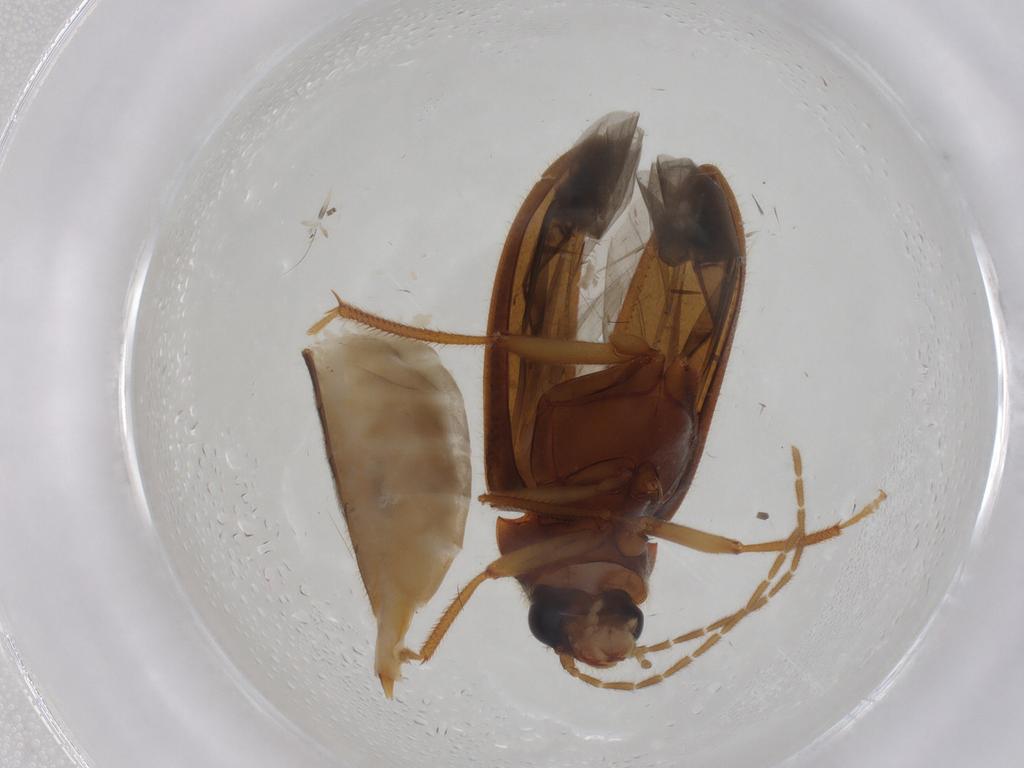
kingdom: Animalia
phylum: Arthropoda
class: Insecta
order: Coleoptera
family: Ptilodactylidae
